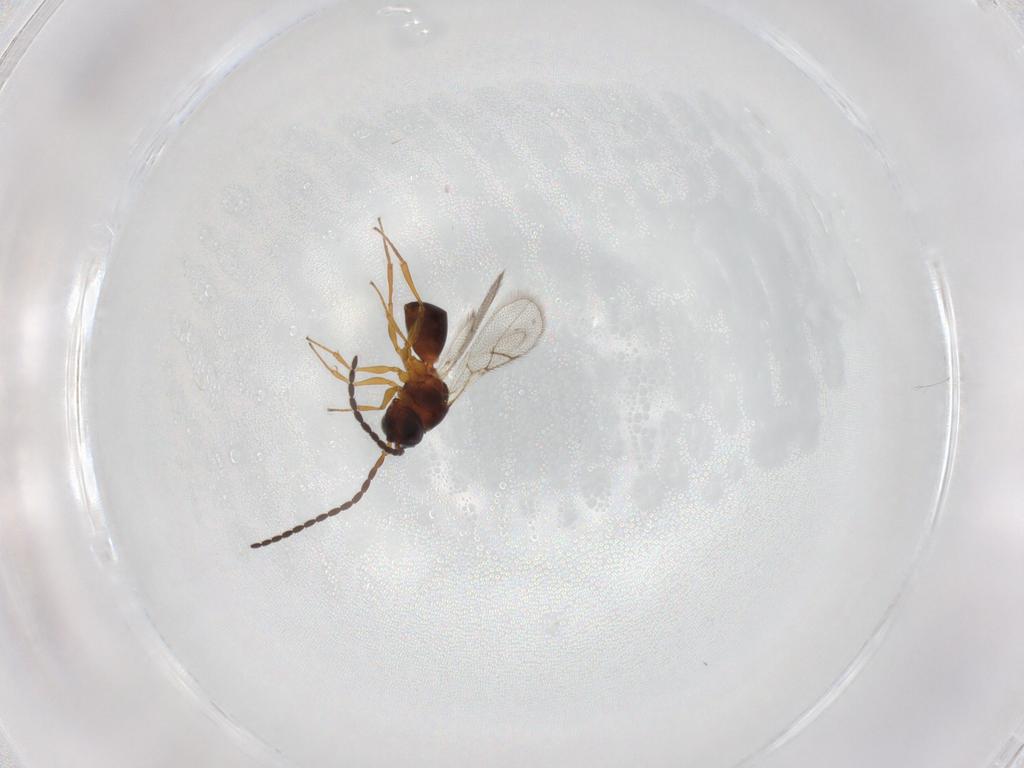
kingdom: Animalia
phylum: Arthropoda
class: Insecta
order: Hymenoptera
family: Figitidae
